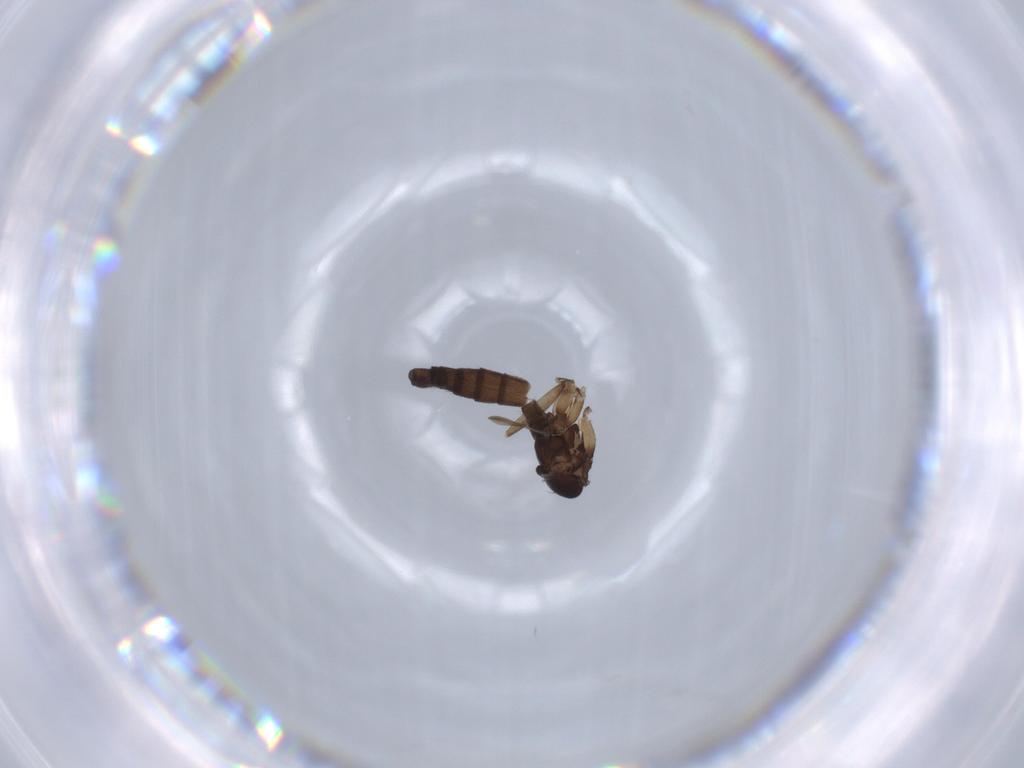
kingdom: Animalia
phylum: Arthropoda
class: Insecta
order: Diptera
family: Sciaridae
